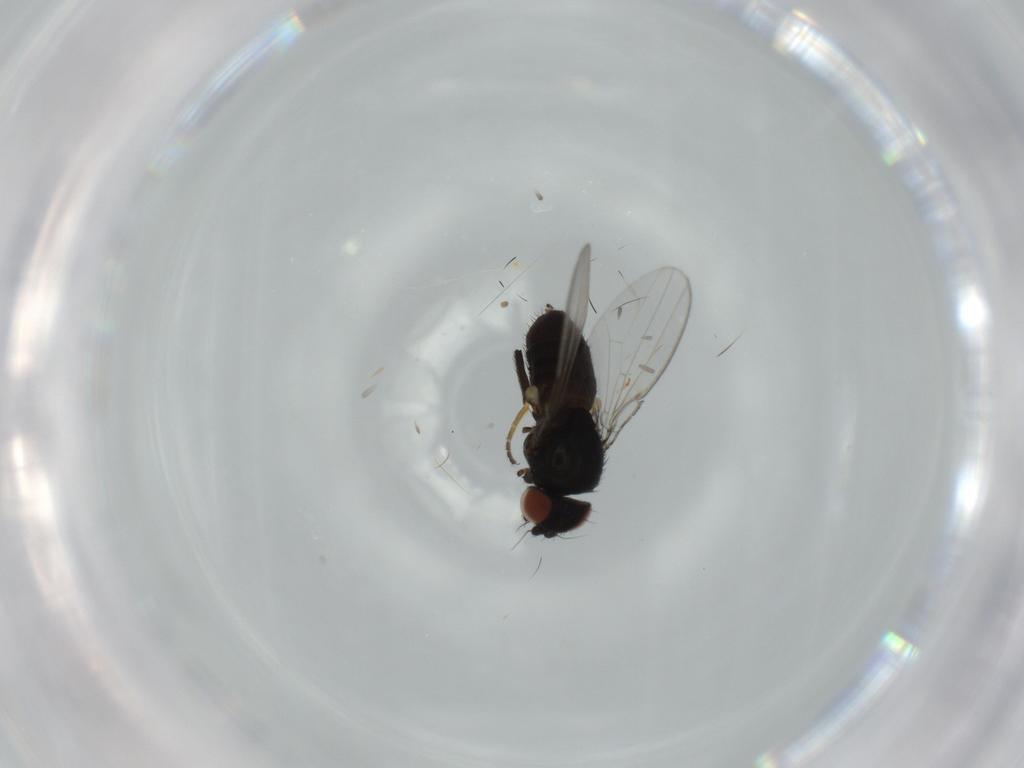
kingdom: Animalia
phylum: Arthropoda
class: Insecta
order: Diptera
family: Milichiidae
